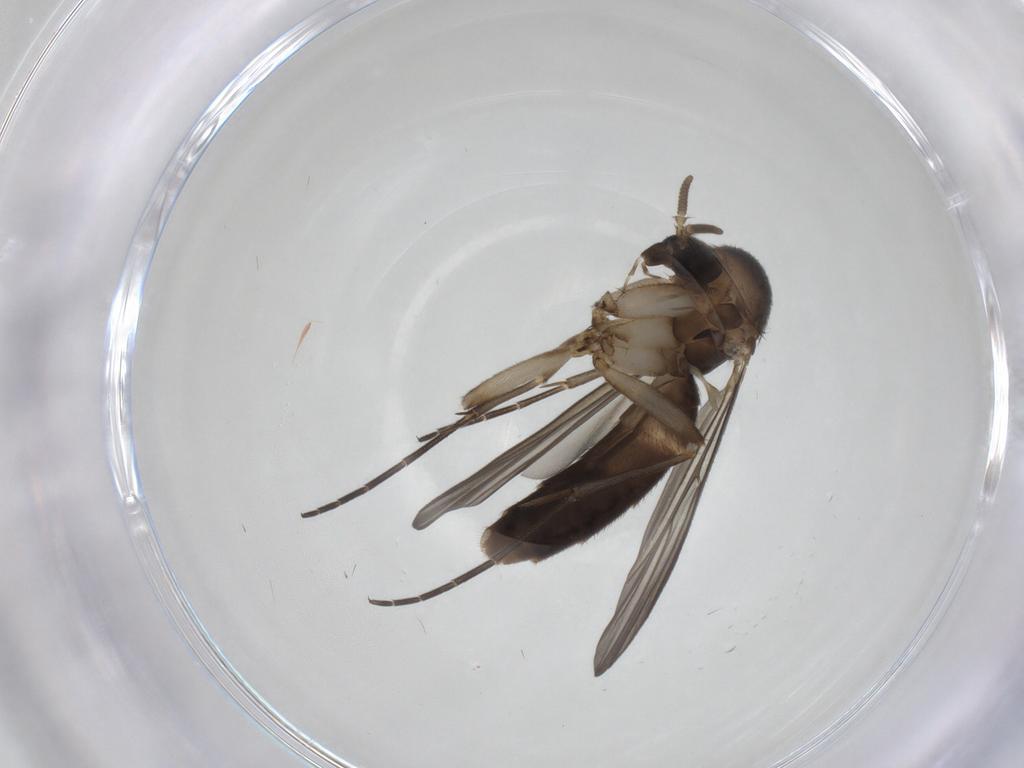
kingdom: Animalia
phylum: Arthropoda
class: Insecta
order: Diptera
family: Mycetophilidae
